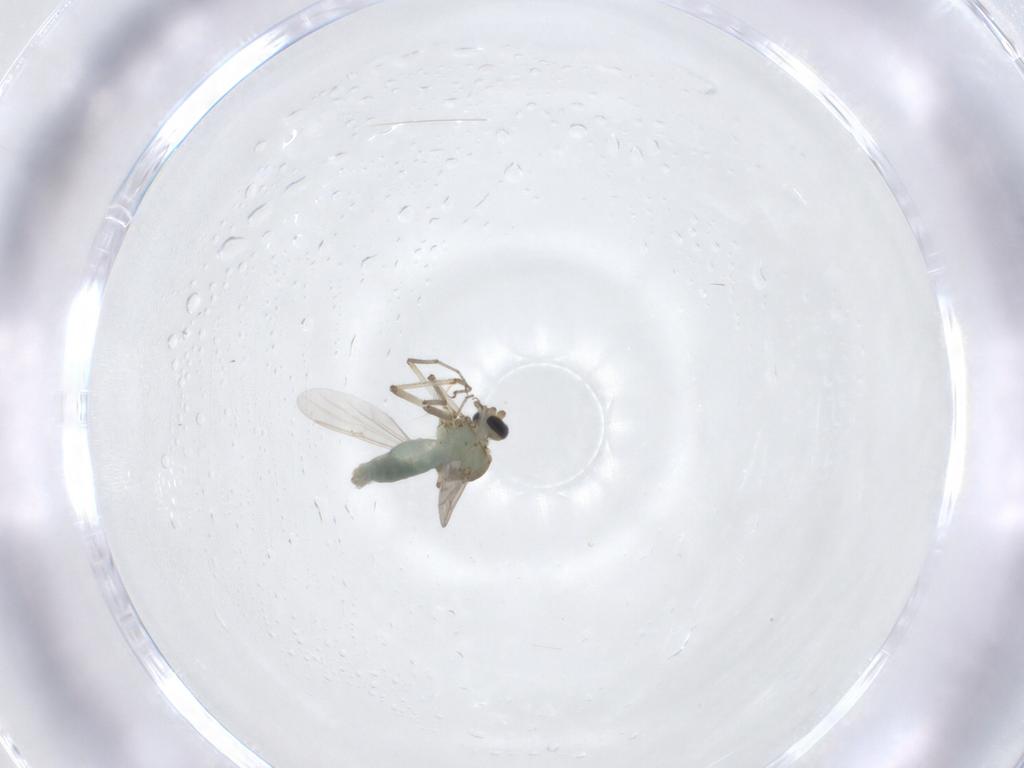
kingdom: Animalia
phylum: Arthropoda
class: Insecta
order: Diptera
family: Ceratopogonidae
